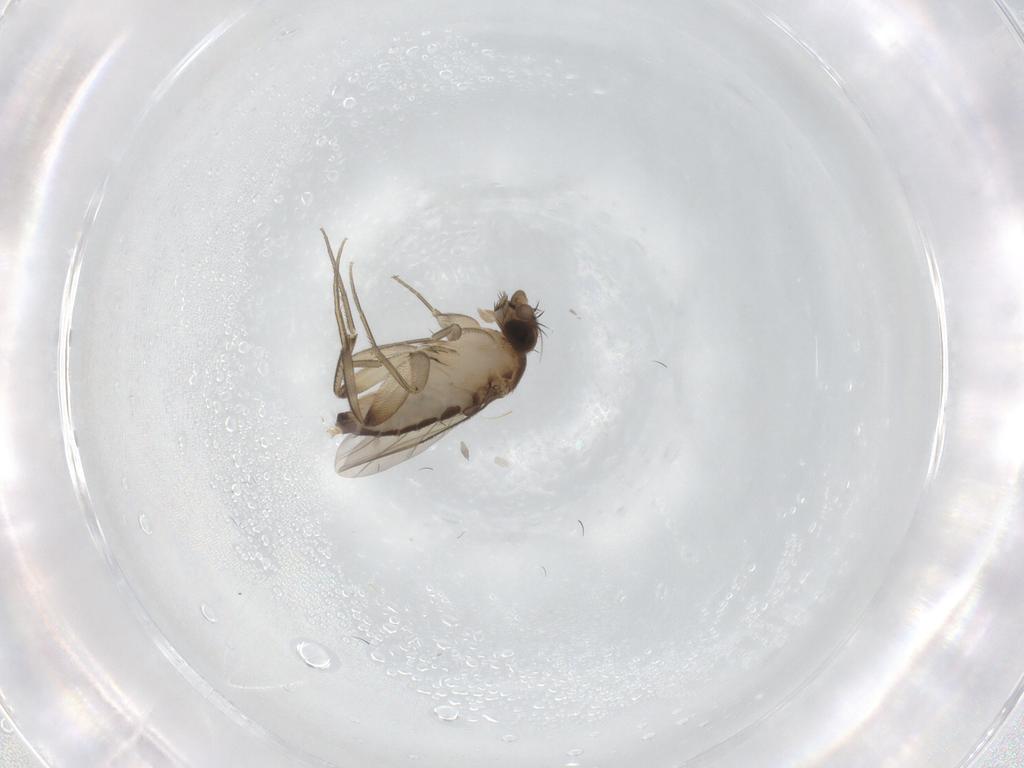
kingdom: Animalia
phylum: Arthropoda
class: Insecta
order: Diptera
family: Phoridae
